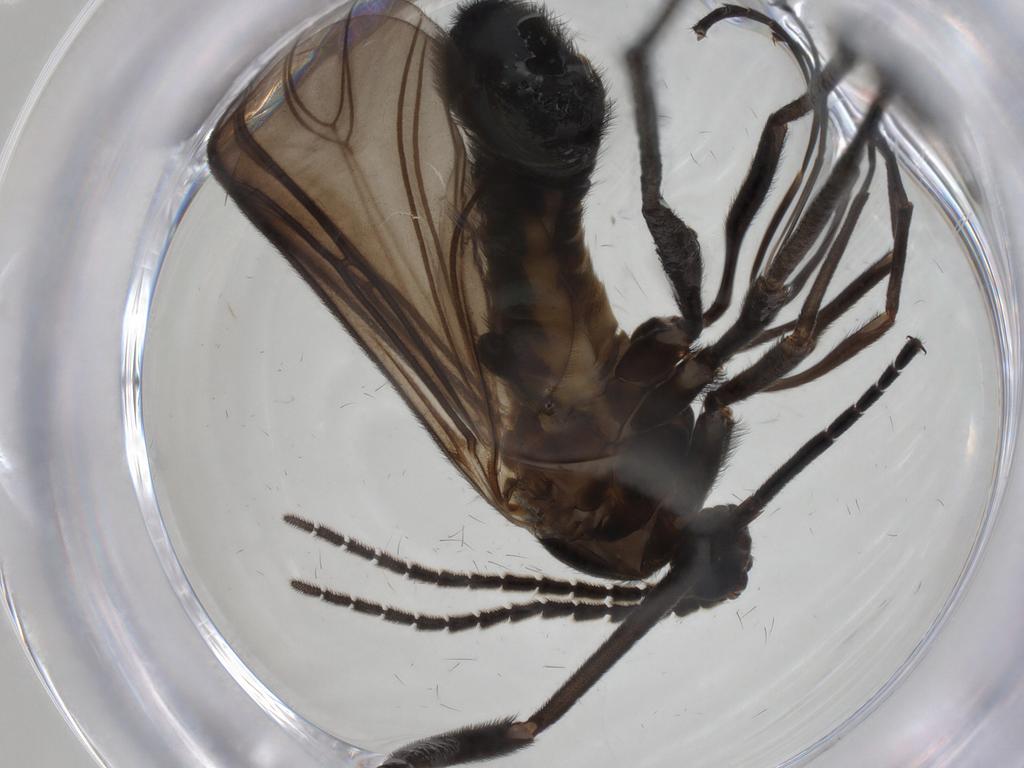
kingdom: Animalia
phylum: Arthropoda
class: Insecta
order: Diptera
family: Sciaridae
